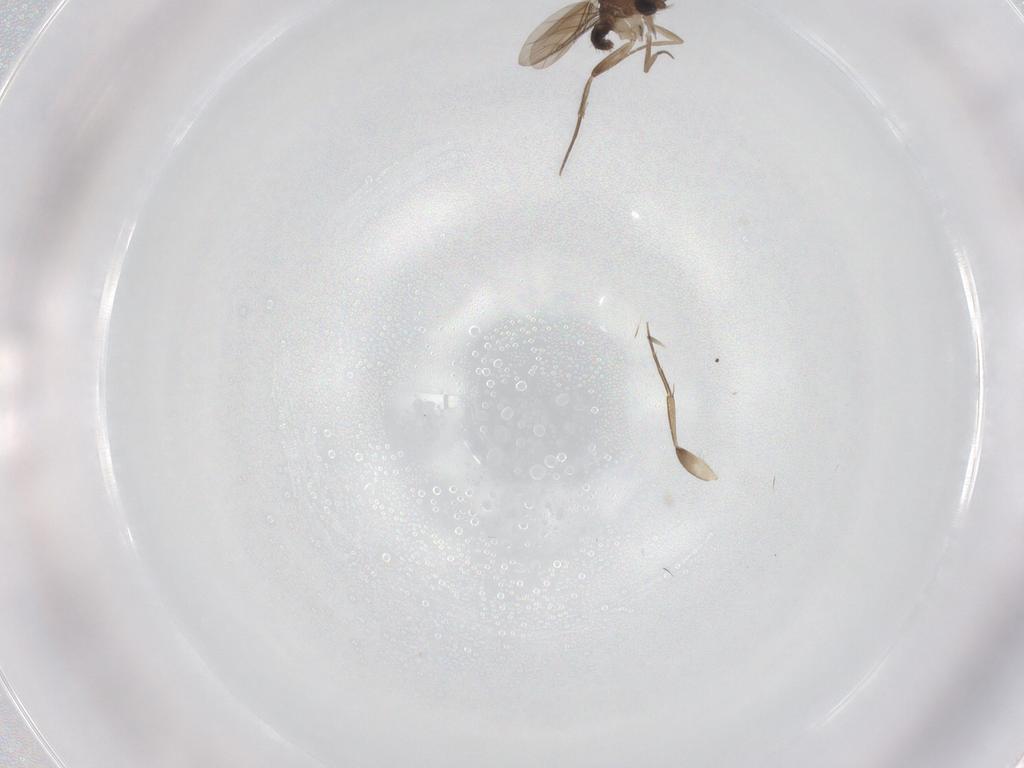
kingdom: Animalia
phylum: Arthropoda
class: Insecta
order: Diptera
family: Phoridae
